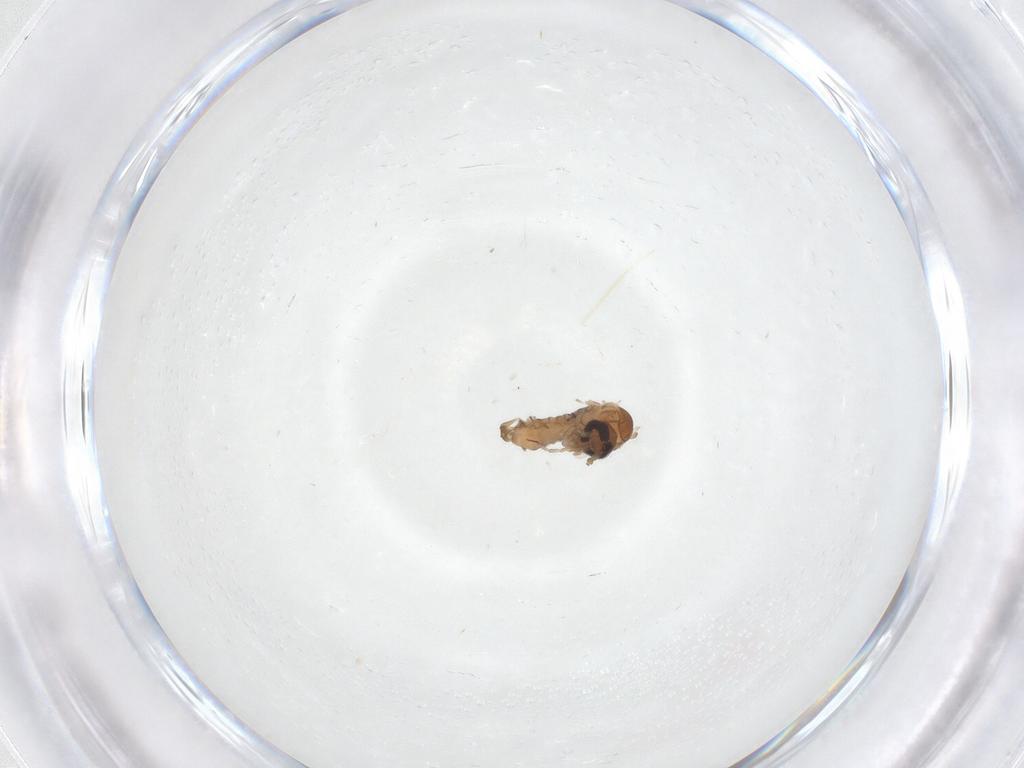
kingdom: Animalia
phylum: Arthropoda
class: Insecta
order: Diptera
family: Psychodidae
